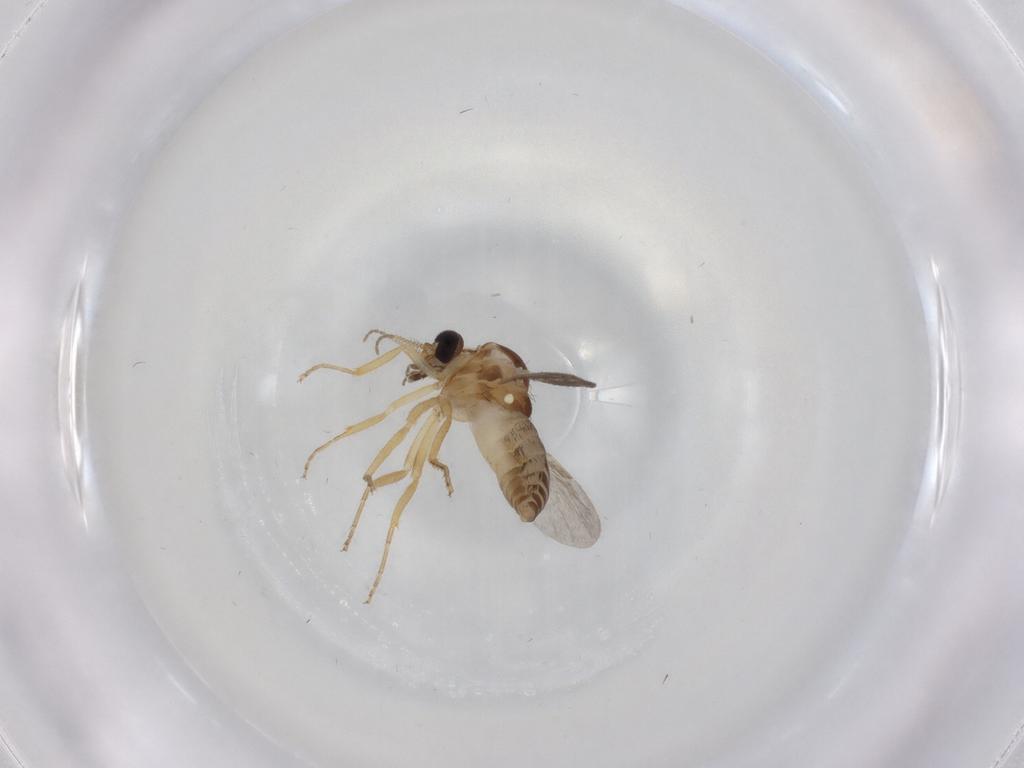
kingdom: Animalia
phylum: Arthropoda
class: Insecta
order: Diptera
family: Ceratopogonidae
